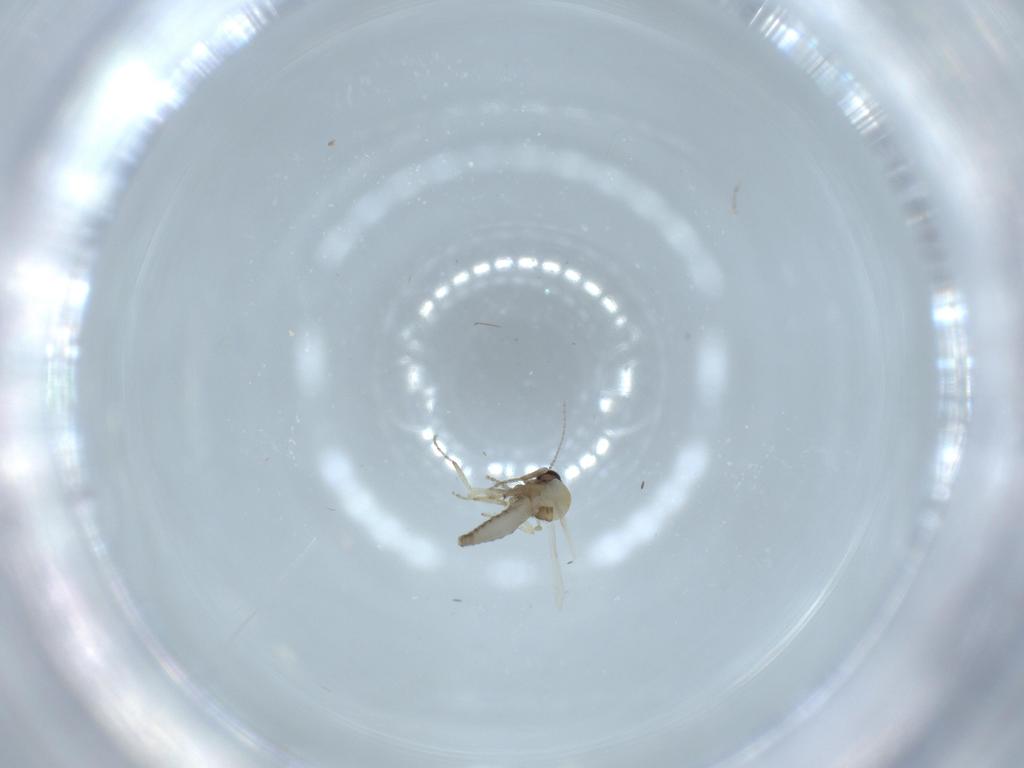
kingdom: Animalia
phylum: Arthropoda
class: Insecta
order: Diptera
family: Ceratopogonidae
